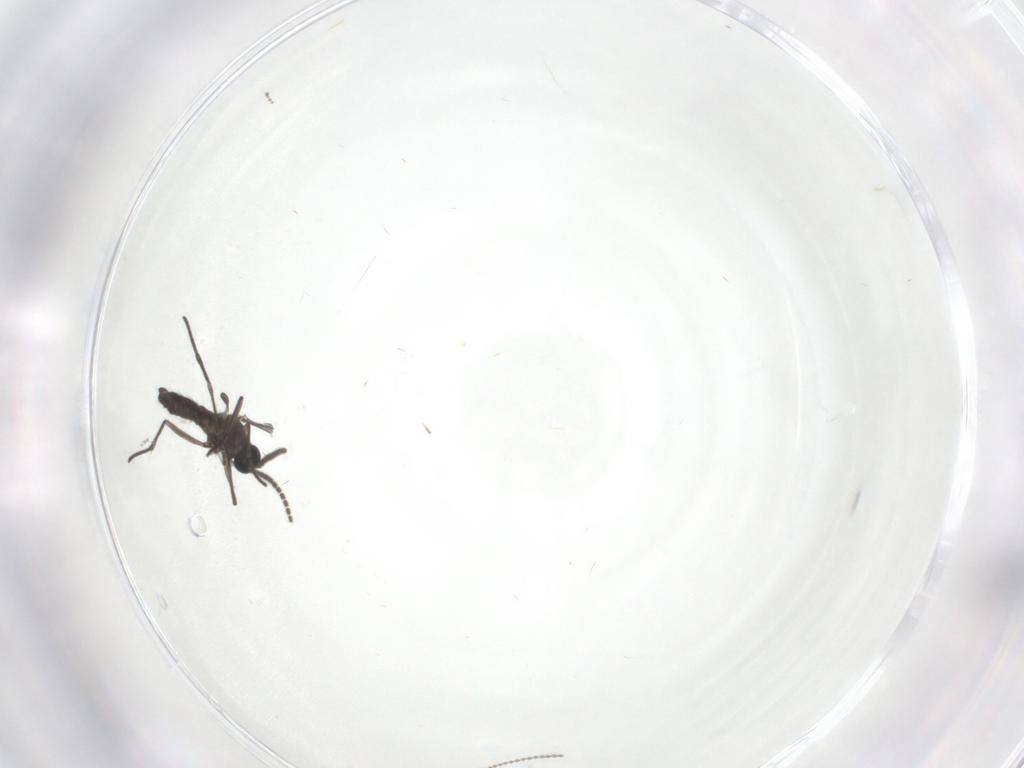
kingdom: Animalia
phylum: Arthropoda
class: Insecta
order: Diptera
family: Cecidomyiidae
